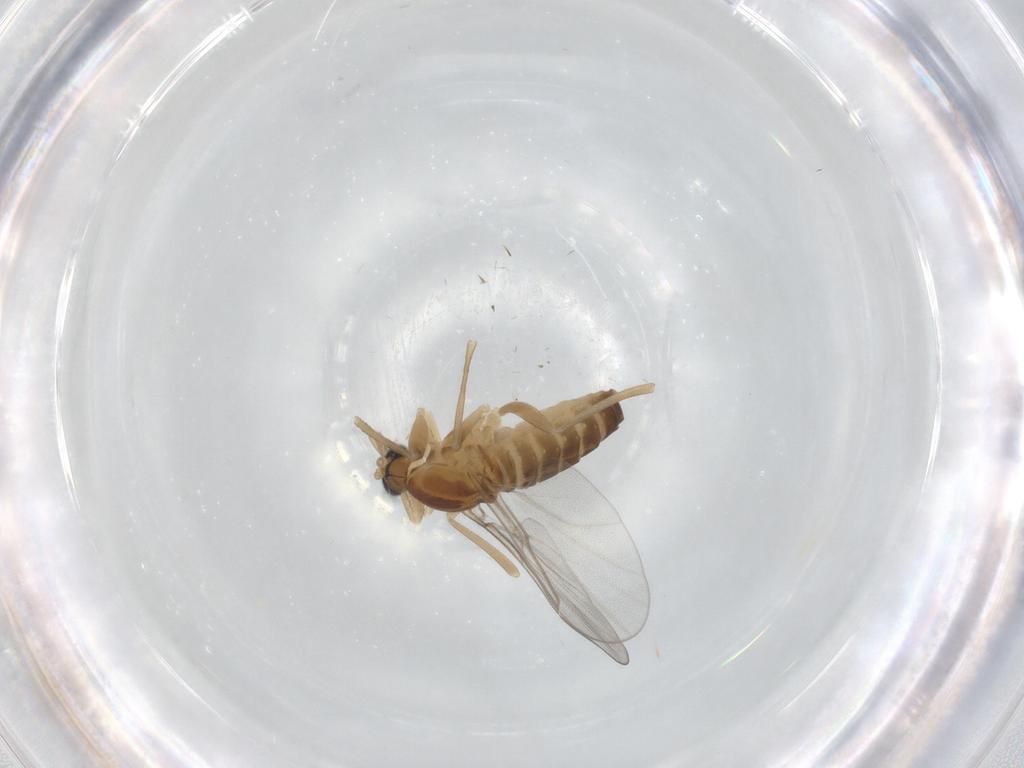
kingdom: Animalia
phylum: Arthropoda
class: Insecta
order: Diptera
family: Cecidomyiidae
